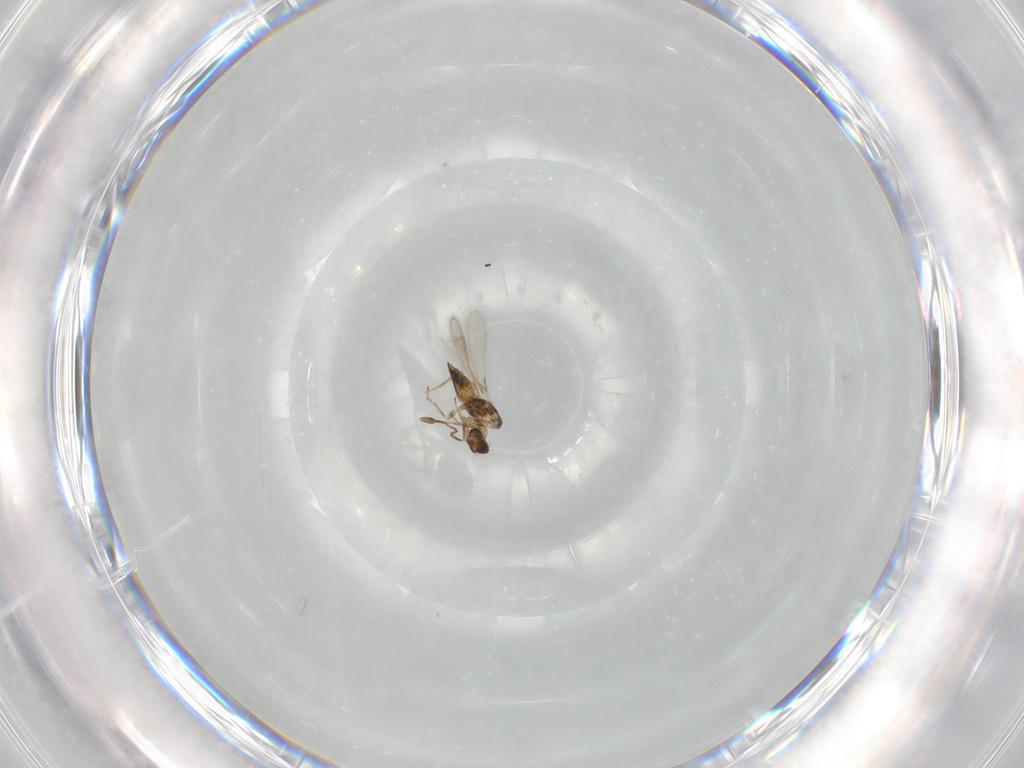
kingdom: Animalia
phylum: Arthropoda
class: Insecta
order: Hymenoptera
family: Mymaridae
